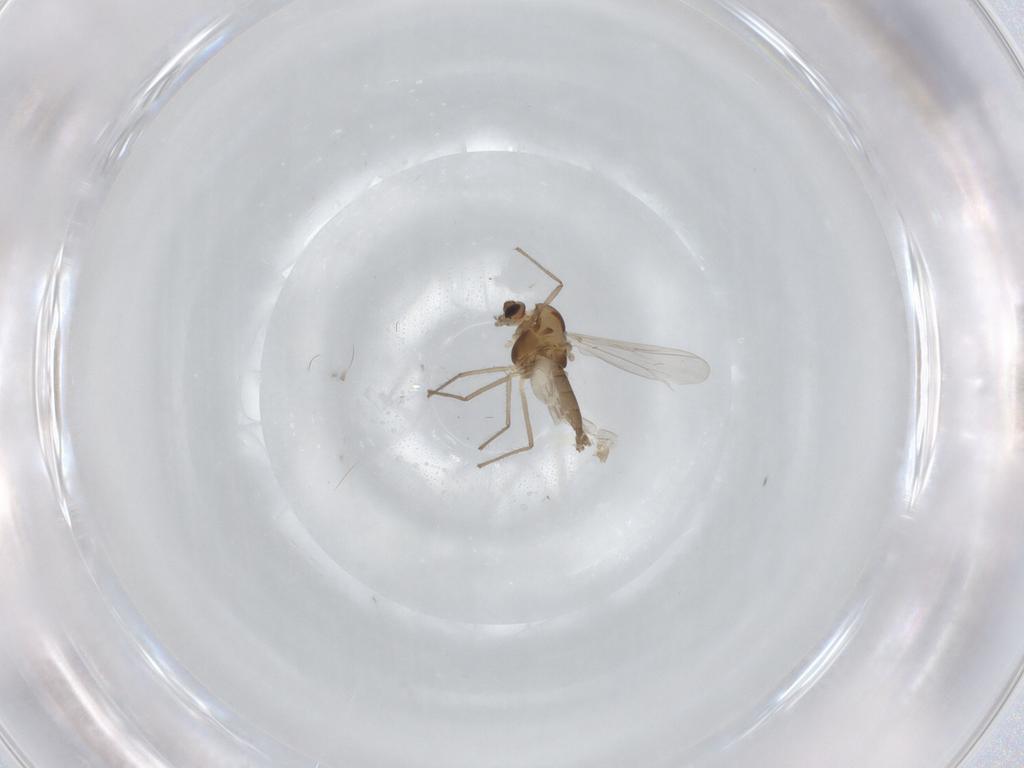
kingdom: Animalia
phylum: Arthropoda
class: Insecta
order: Diptera
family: Chironomidae
